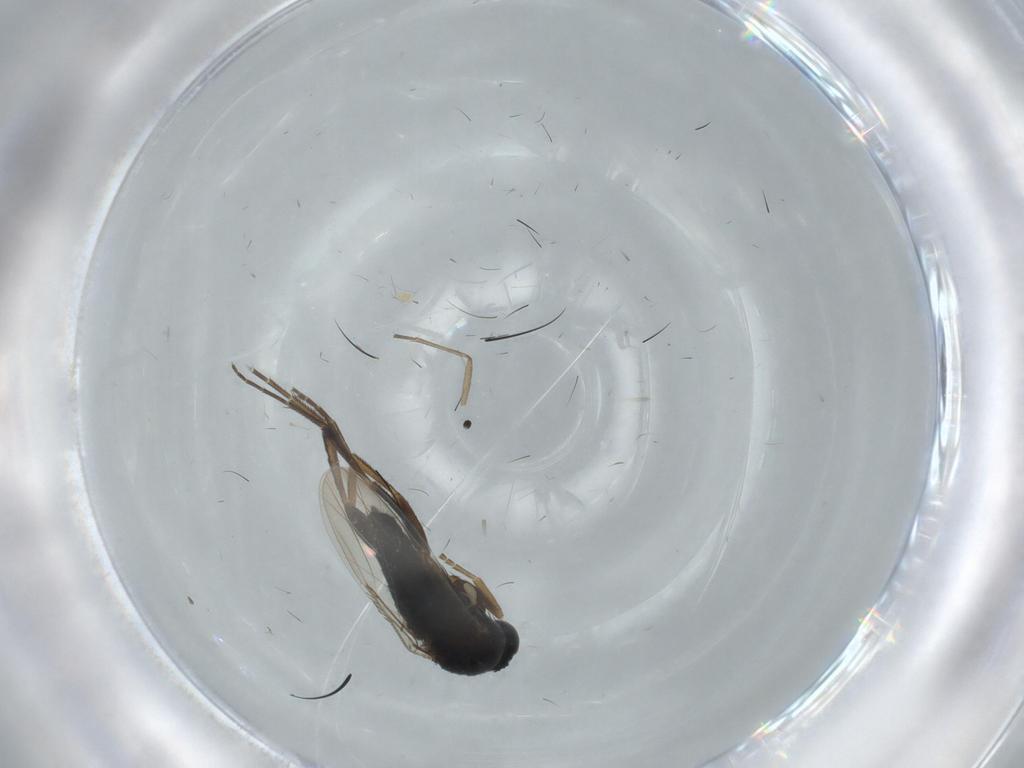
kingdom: Animalia
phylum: Arthropoda
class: Insecta
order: Diptera
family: Phoridae
